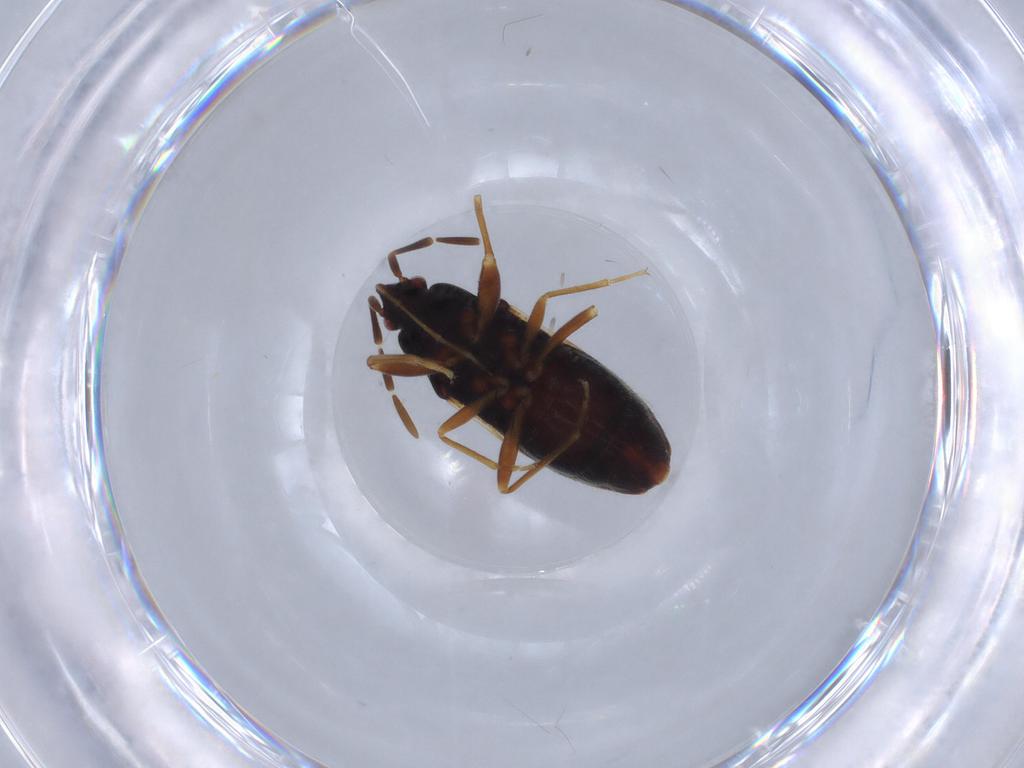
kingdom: Animalia
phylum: Arthropoda
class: Insecta
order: Hemiptera
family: Rhyparochromidae
